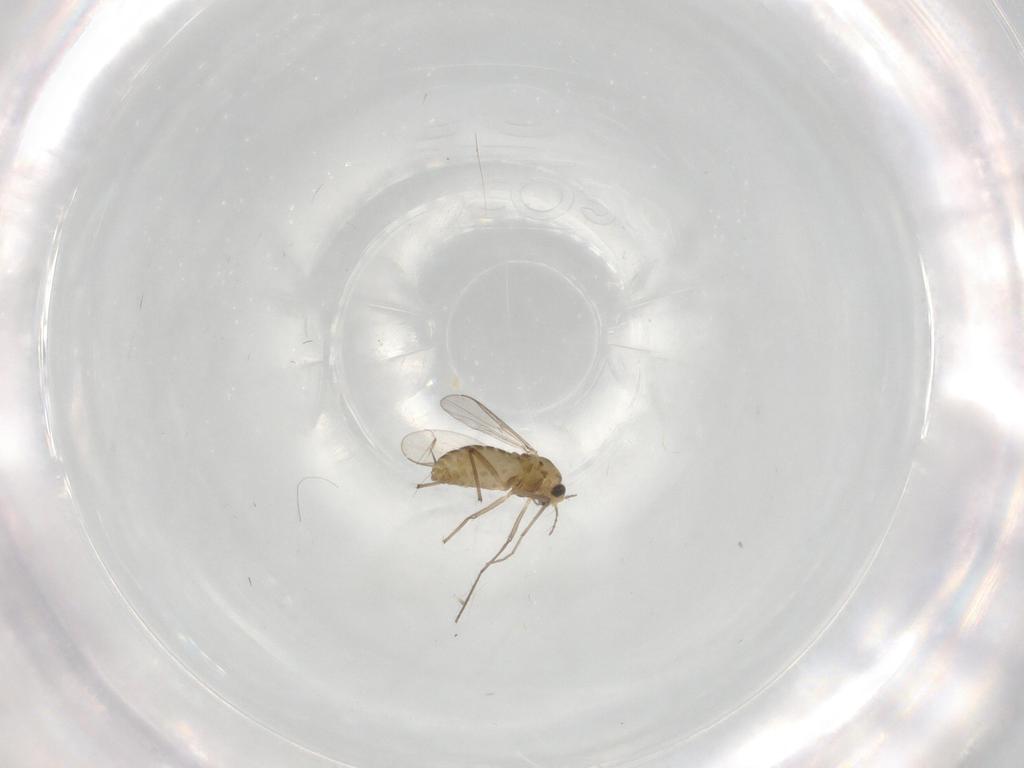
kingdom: Animalia
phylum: Arthropoda
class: Insecta
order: Diptera
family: Chironomidae
